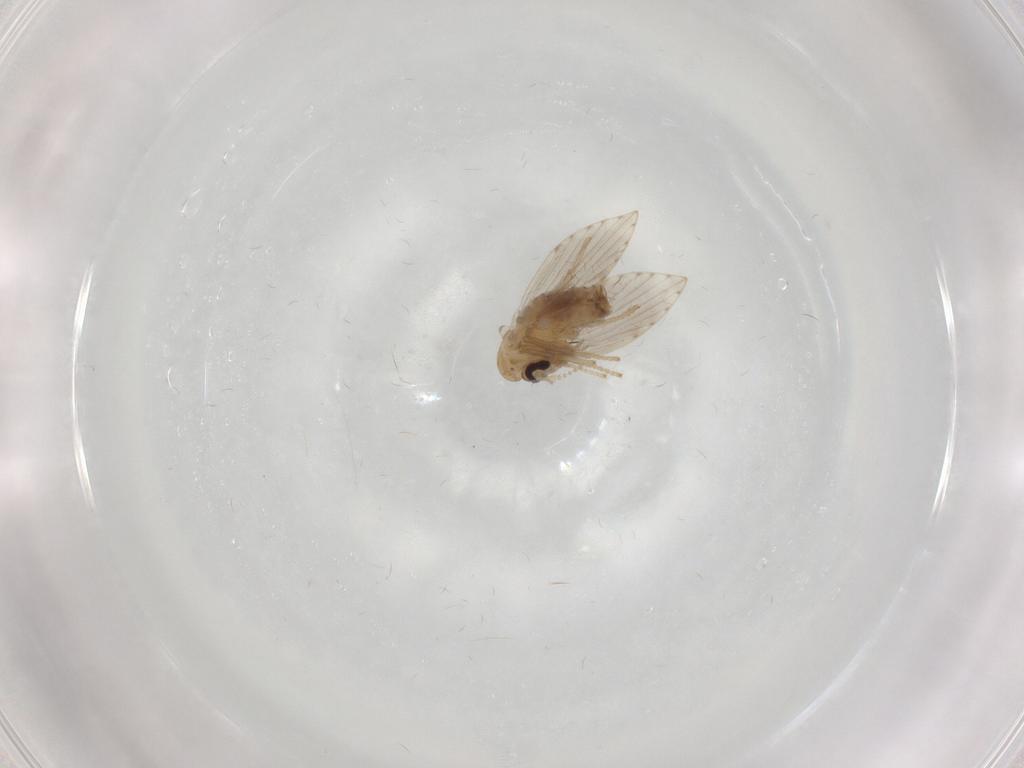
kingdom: Animalia
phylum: Arthropoda
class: Insecta
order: Diptera
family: Psychodidae
